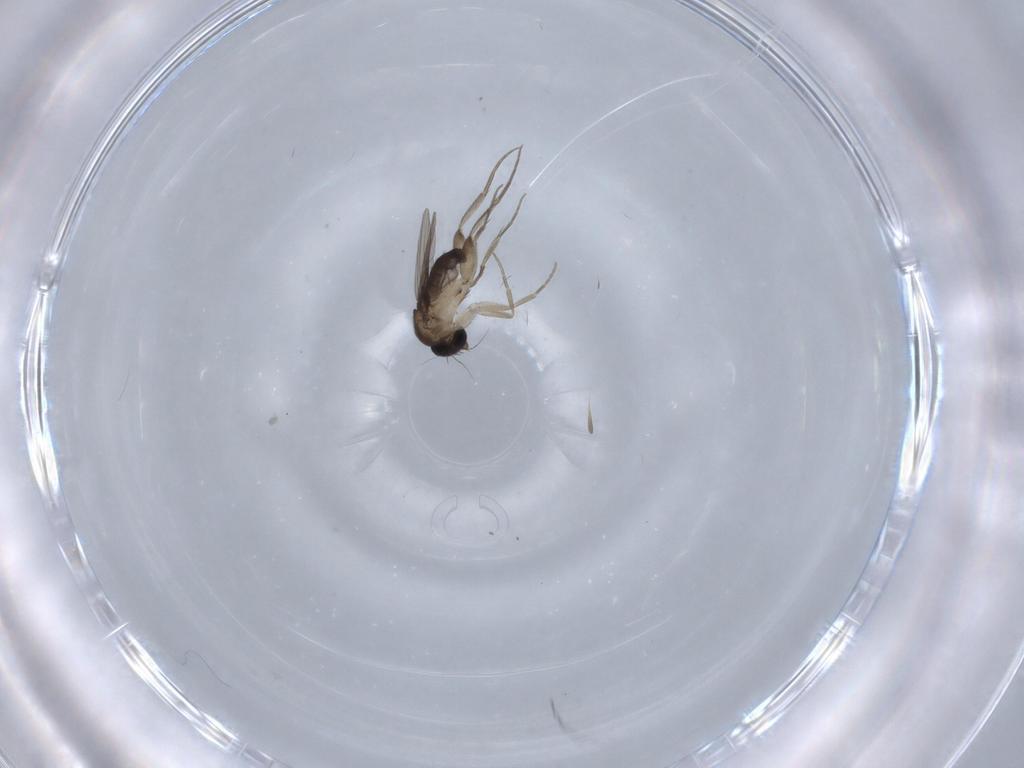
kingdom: Animalia
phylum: Arthropoda
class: Insecta
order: Diptera
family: Phoridae
